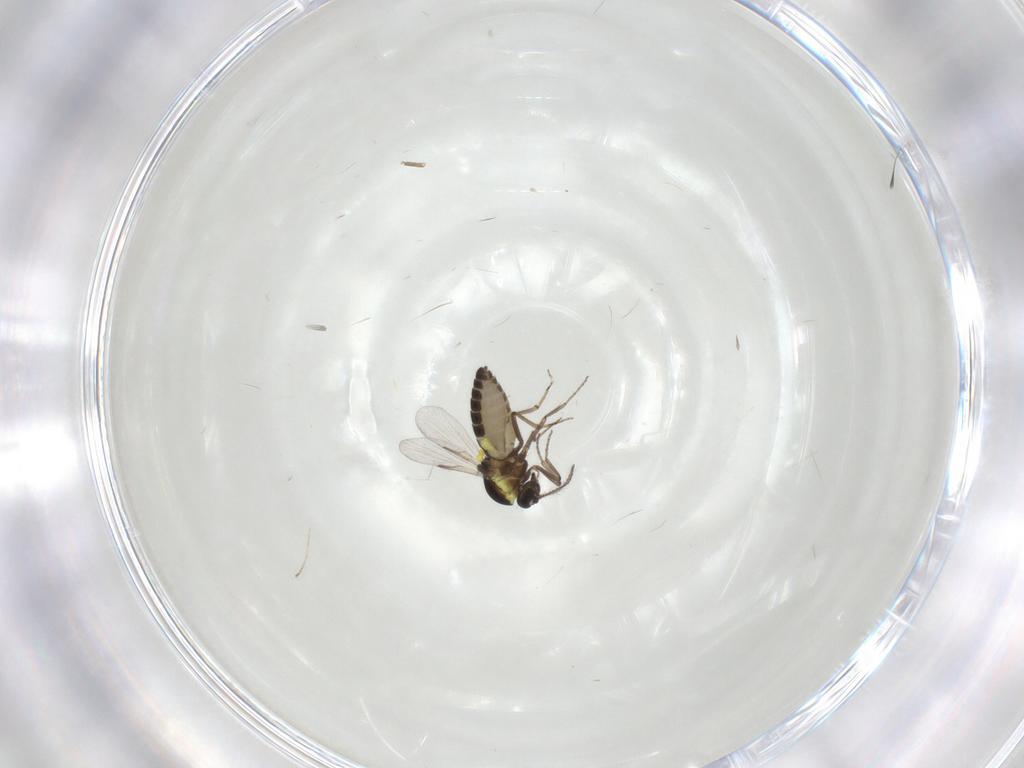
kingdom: Animalia
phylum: Arthropoda
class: Insecta
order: Diptera
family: Ceratopogonidae
